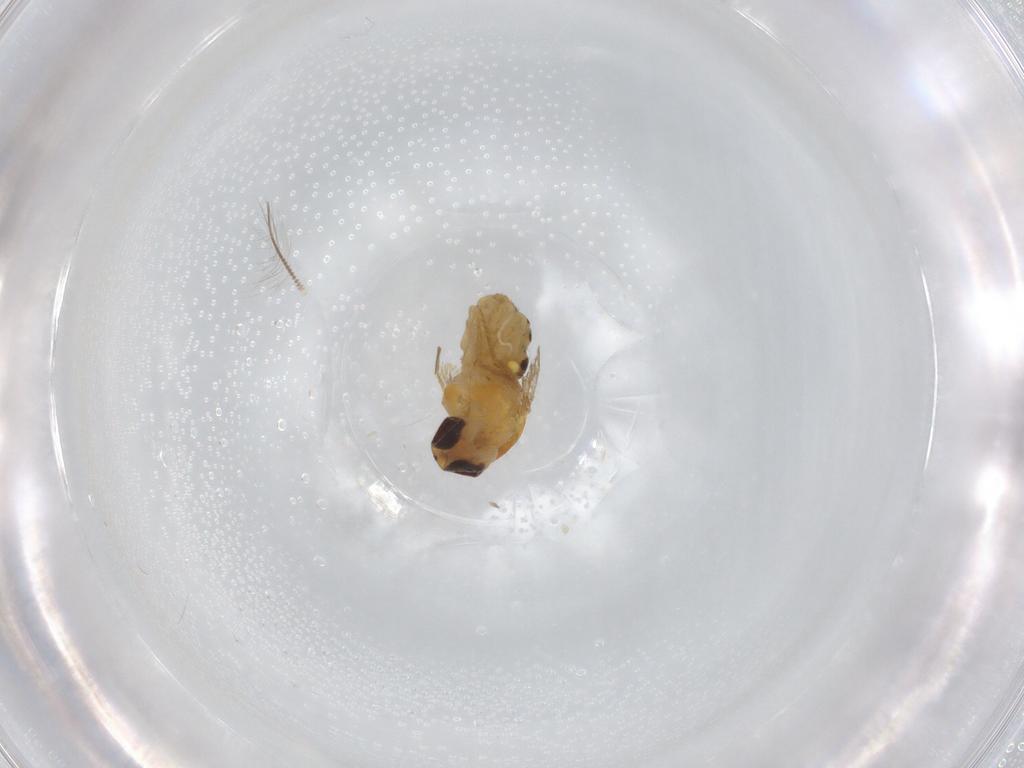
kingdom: Animalia
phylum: Arthropoda
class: Insecta
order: Diptera
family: Chyromyidae
